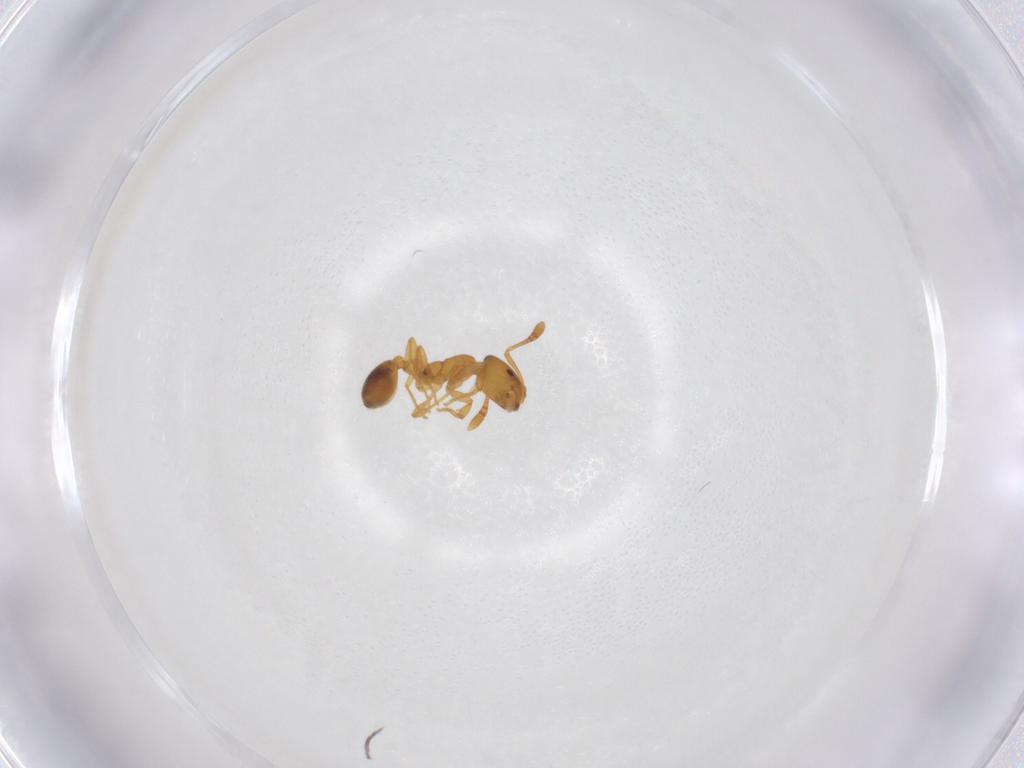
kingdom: Animalia
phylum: Arthropoda
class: Insecta
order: Hymenoptera
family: Formicidae
